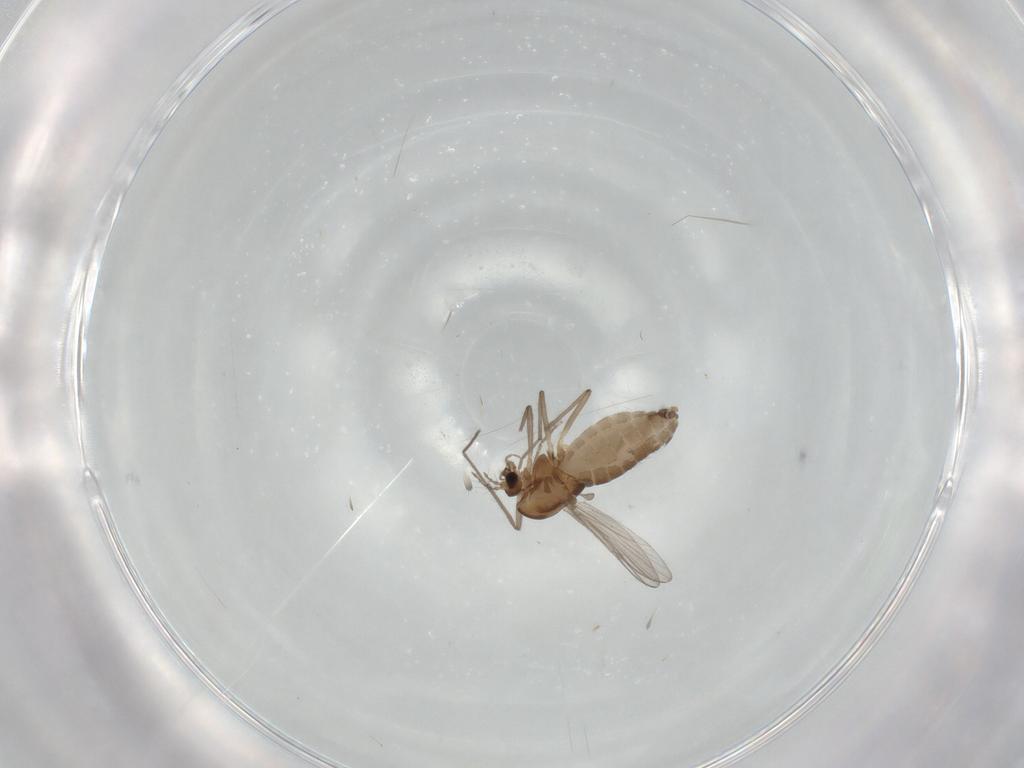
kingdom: Animalia
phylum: Arthropoda
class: Insecta
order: Diptera
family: Chironomidae
